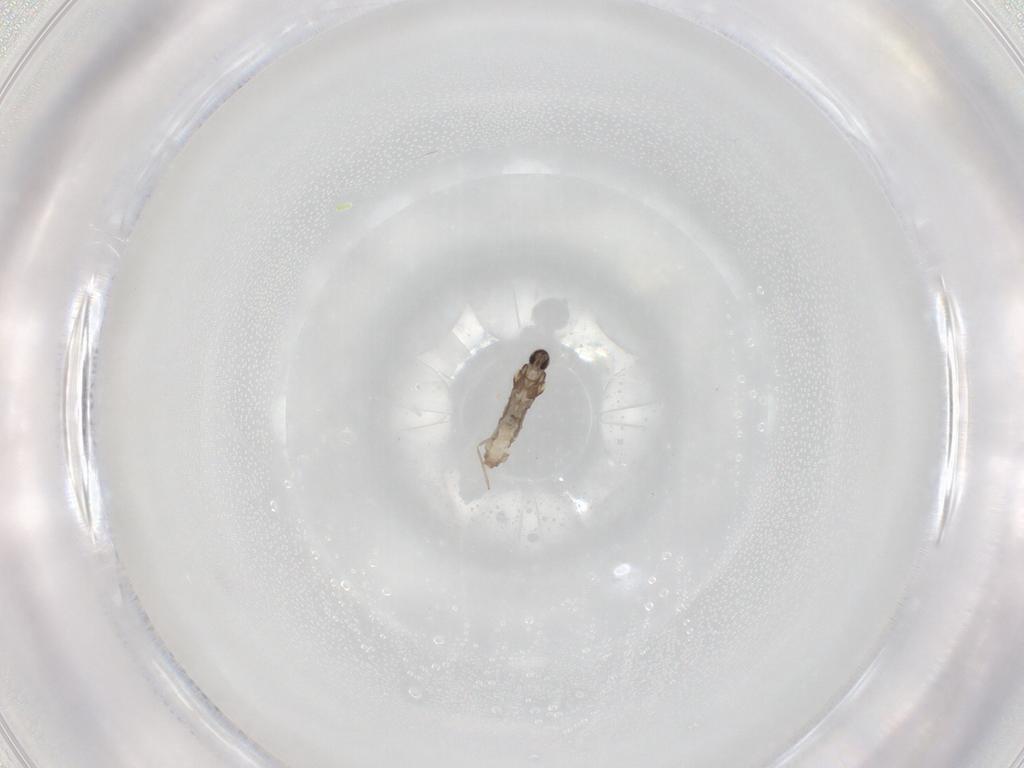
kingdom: Animalia
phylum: Arthropoda
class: Insecta
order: Diptera
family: Cecidomyiidae
